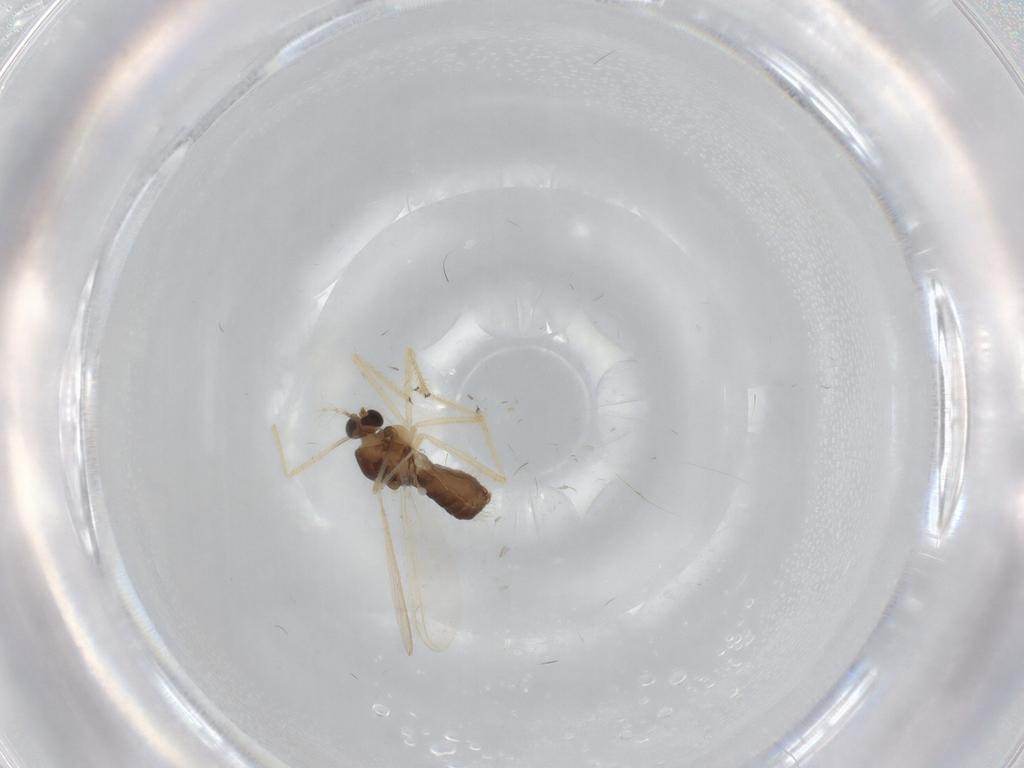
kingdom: Animalia
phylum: Arthropoda
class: Insecta
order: Diptera
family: Chironomidae
